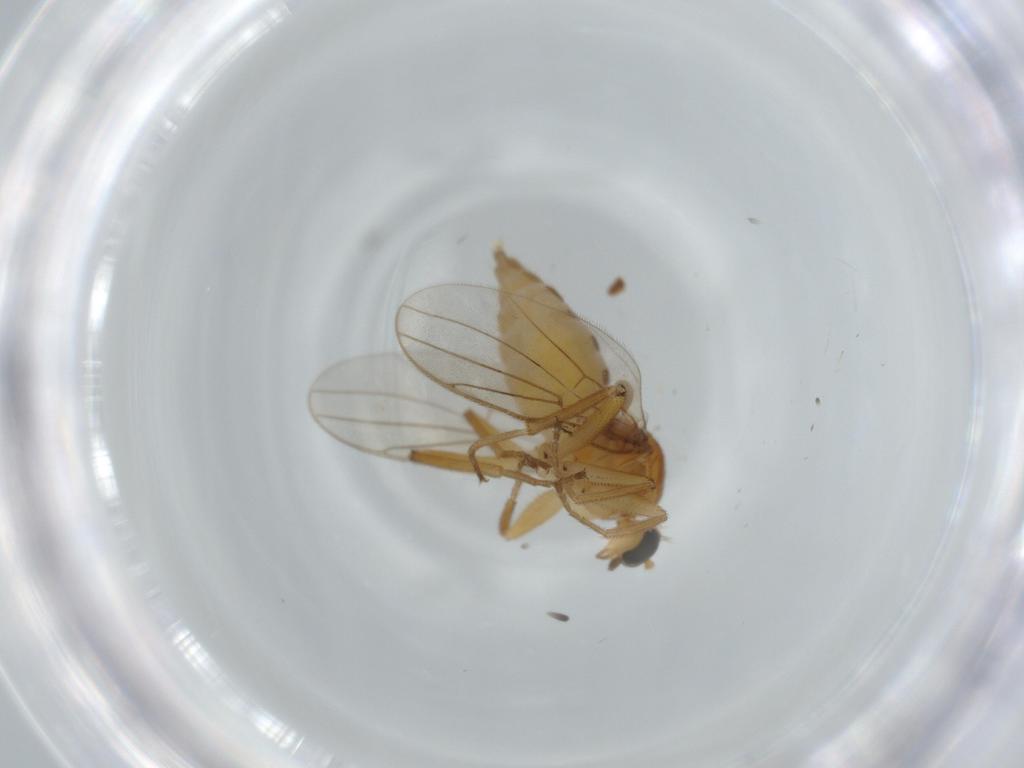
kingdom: Animalia
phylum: Arthropoda
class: Insecta
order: Diptera
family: Hybotidae
